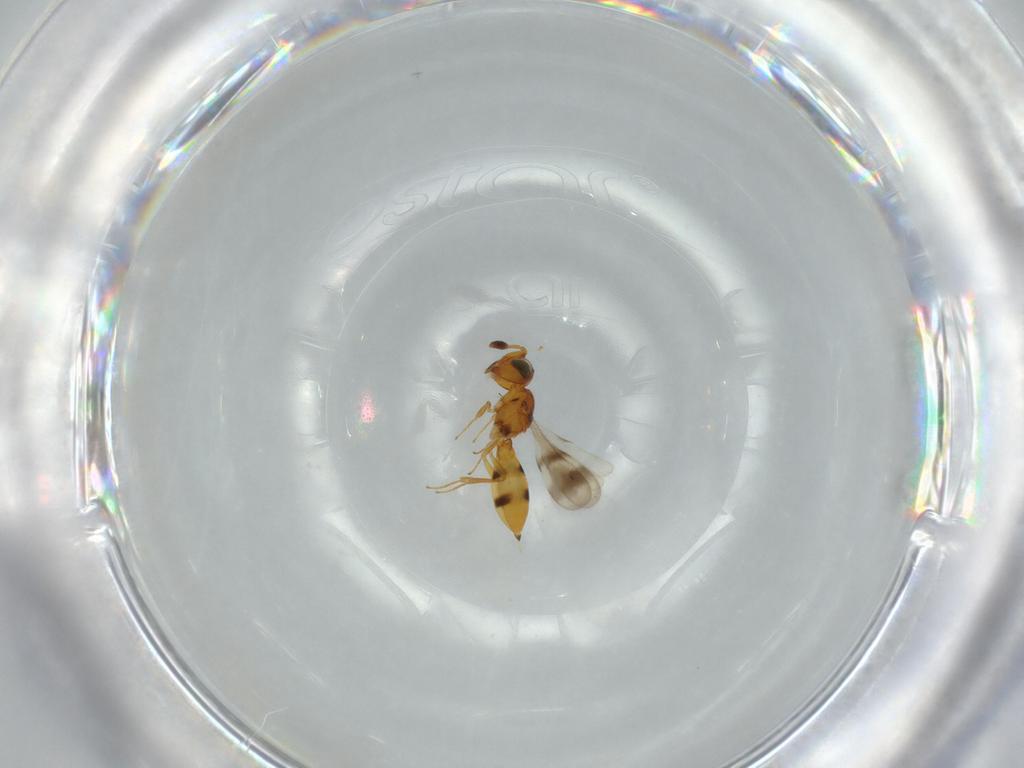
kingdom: Animalia
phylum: Arthropoda
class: Insecta
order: Hymenoptera
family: Scelionidae
